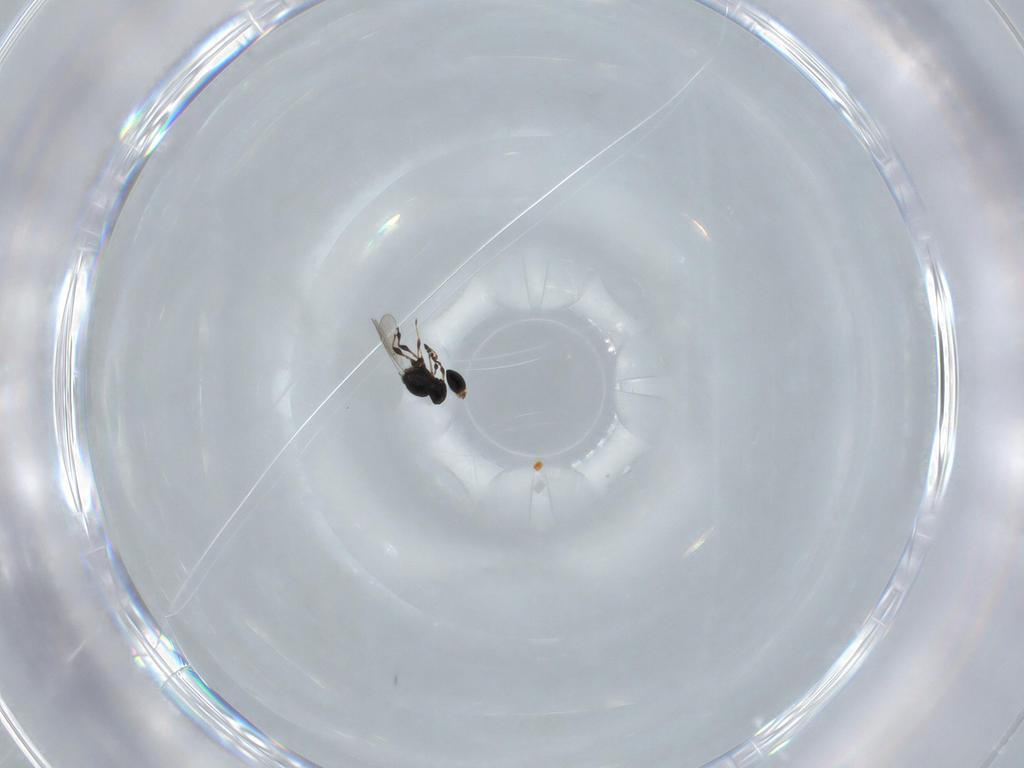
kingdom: Animalia
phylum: Arthropoda
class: Insecta
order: Hymenoptera
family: Platygastridae
